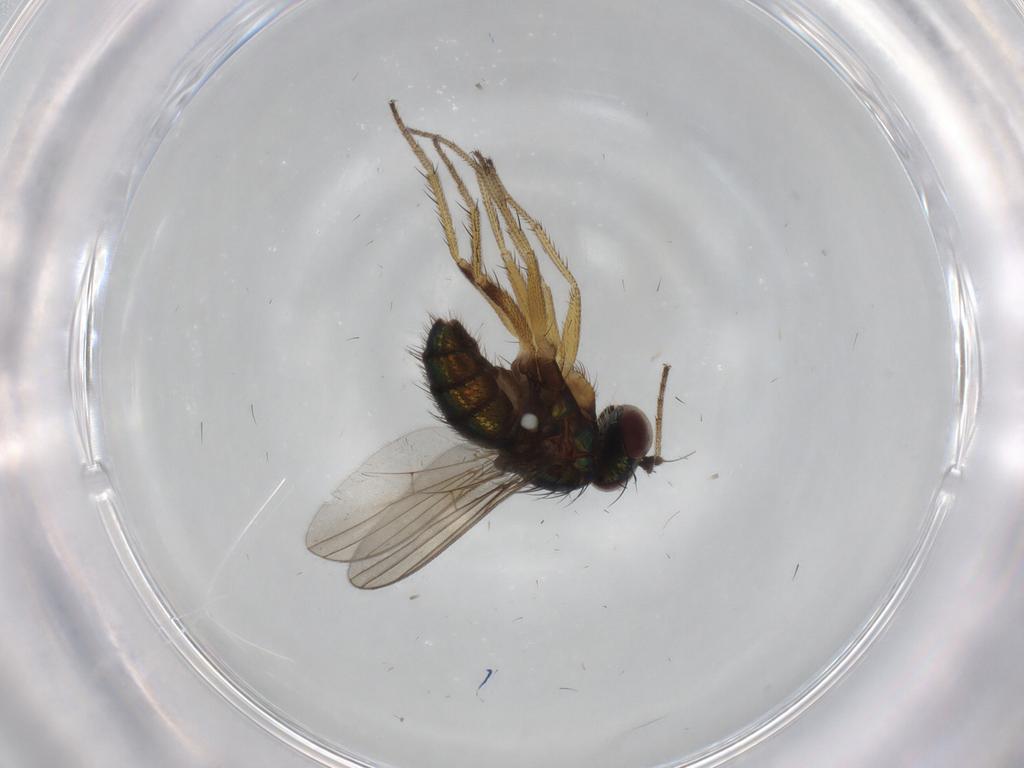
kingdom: Animalia
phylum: Arthropoda
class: Insecta
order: Diptera
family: Dolichopodidae
